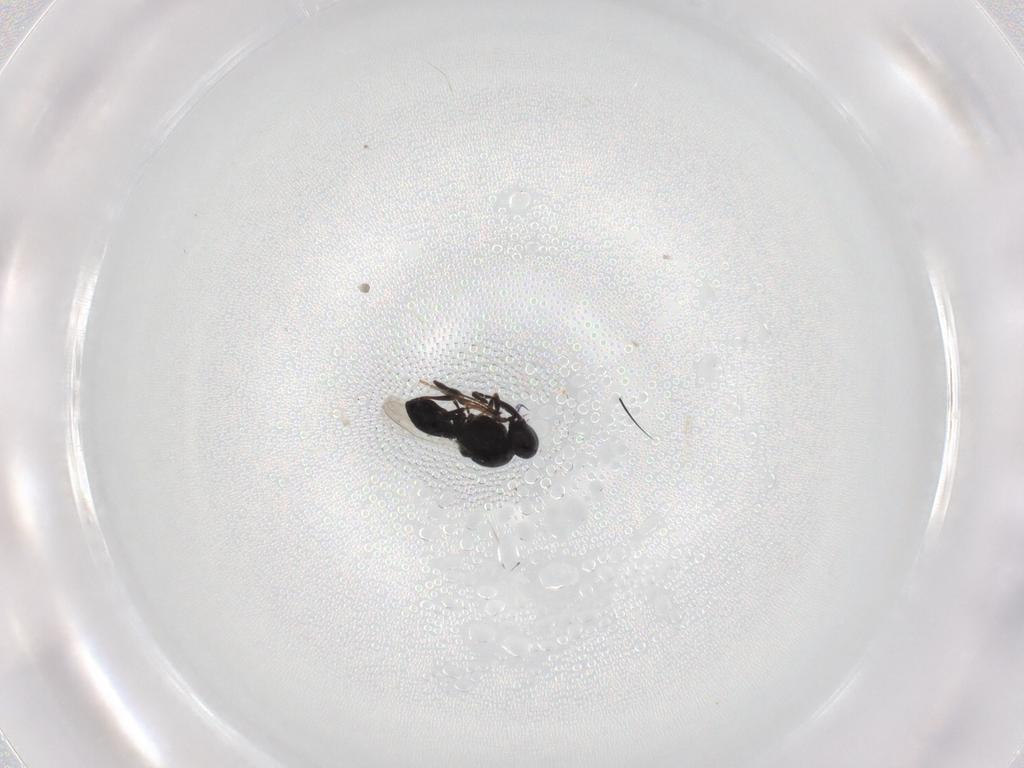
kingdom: Animalia
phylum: Arthropoda
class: Insecta
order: Hymenoptera
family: Platygastridae
